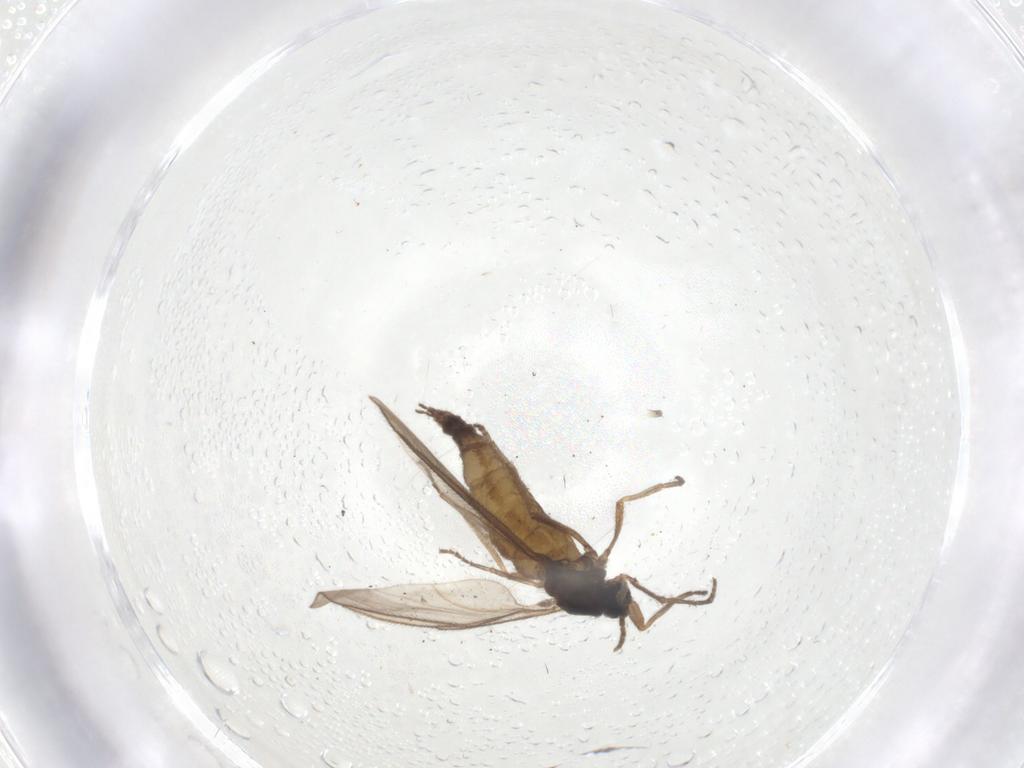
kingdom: Animalia
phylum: Arthropoda
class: Insecta
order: Diptera
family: Sciaridae
